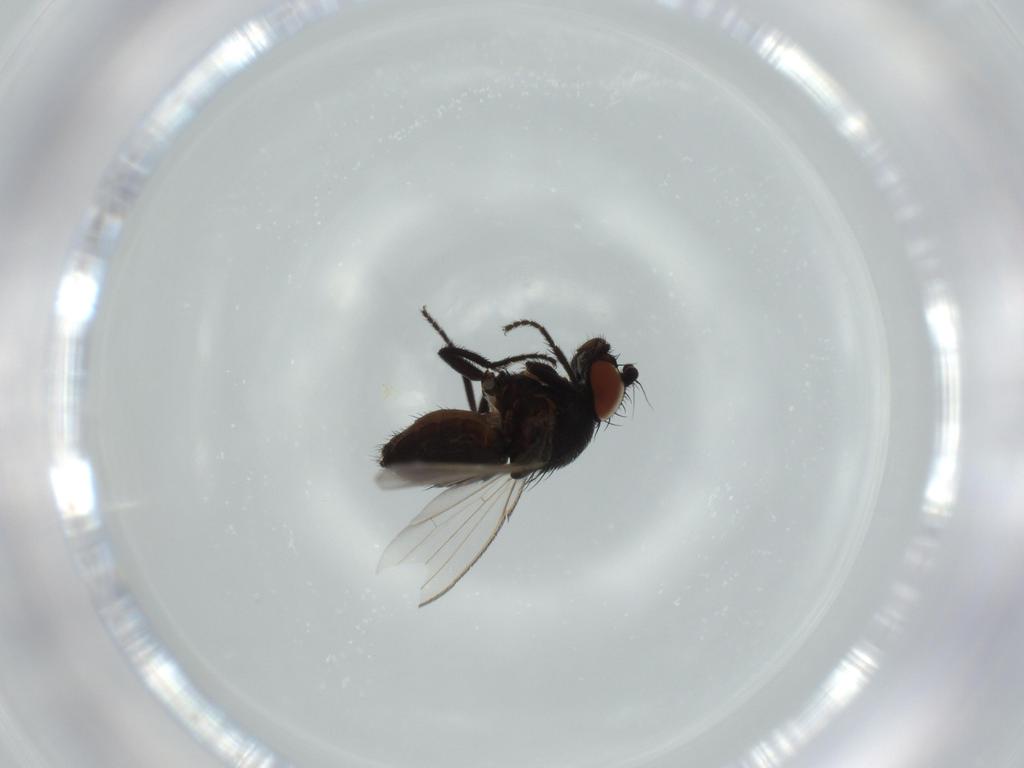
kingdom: Animalia
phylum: Arthropoda
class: Insecta
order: Diptera
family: Milichiidae
